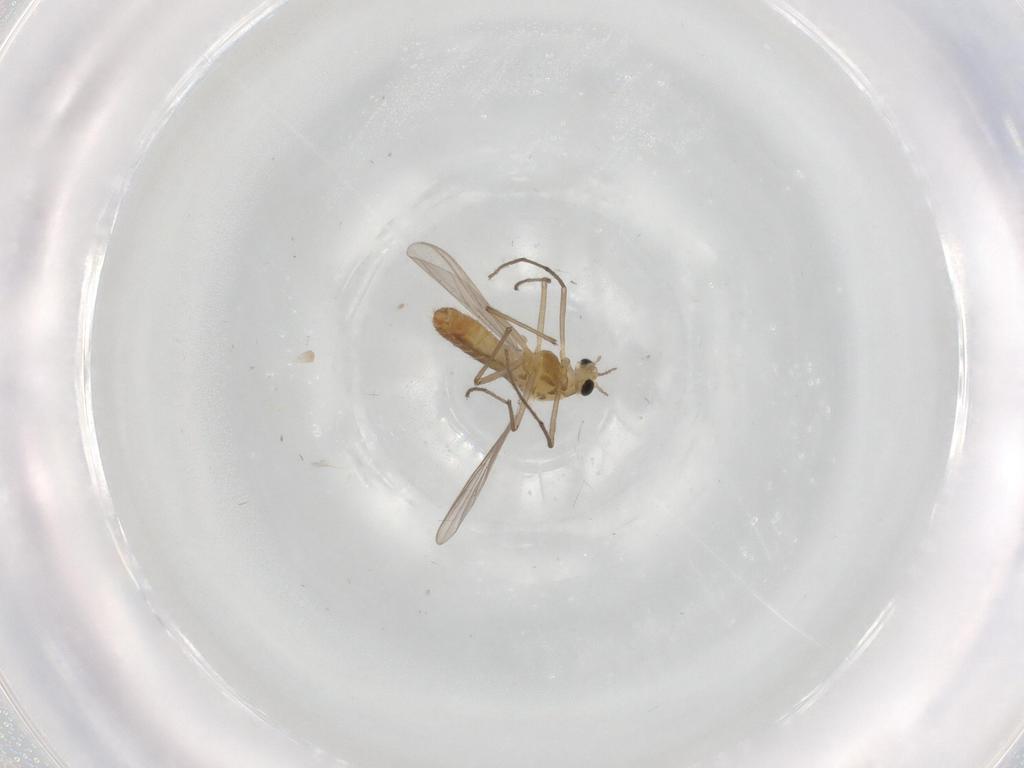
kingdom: Animalia
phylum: Arthropoda
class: Insecta
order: Diptera
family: Chironomidae
